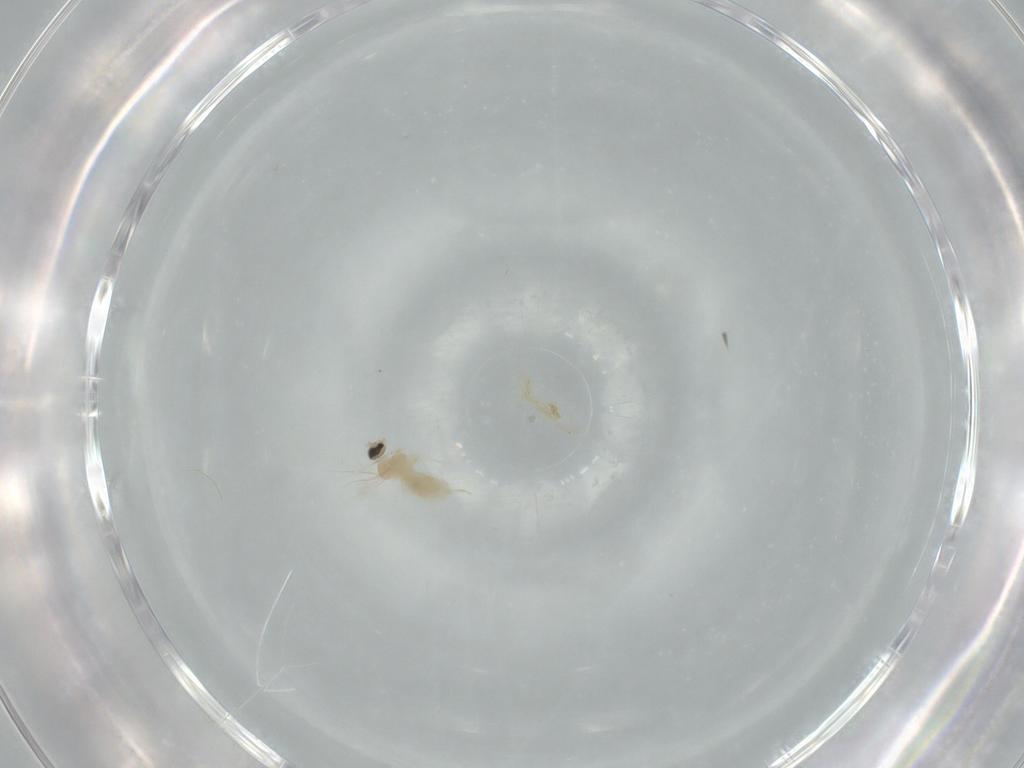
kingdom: Animalia
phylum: Arthropoda
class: Insecta
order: Diptera
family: Cecidomyiidae
